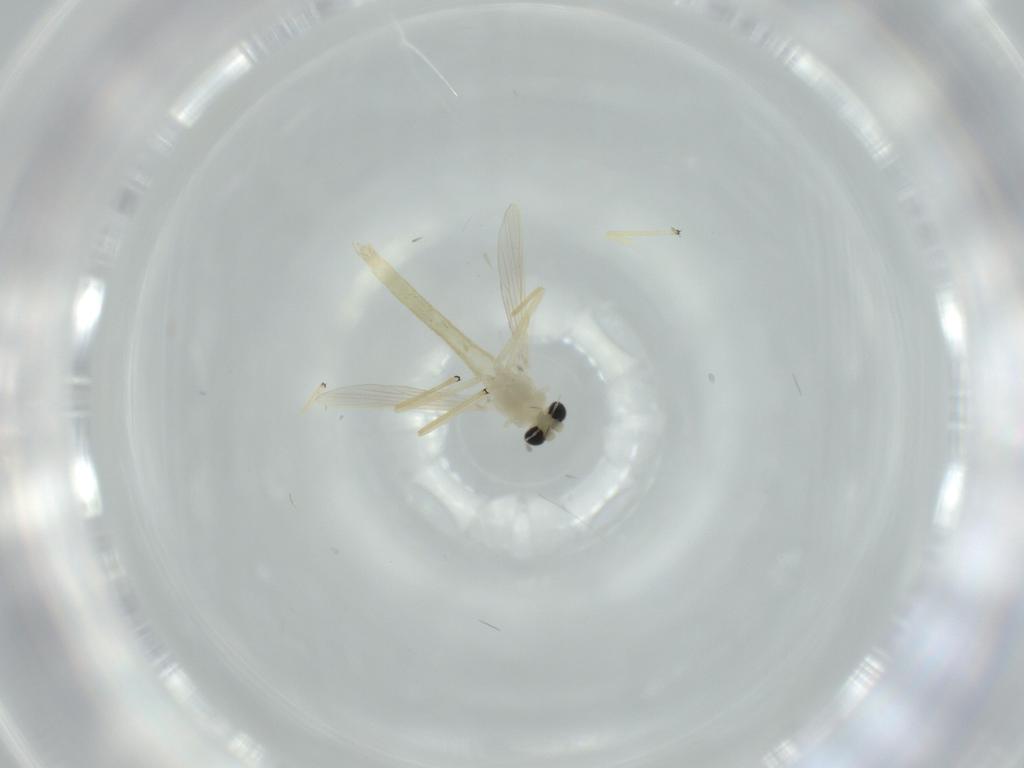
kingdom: Animalia
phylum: Arthropoda
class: Insecta
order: Diptera
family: Chironomidae
